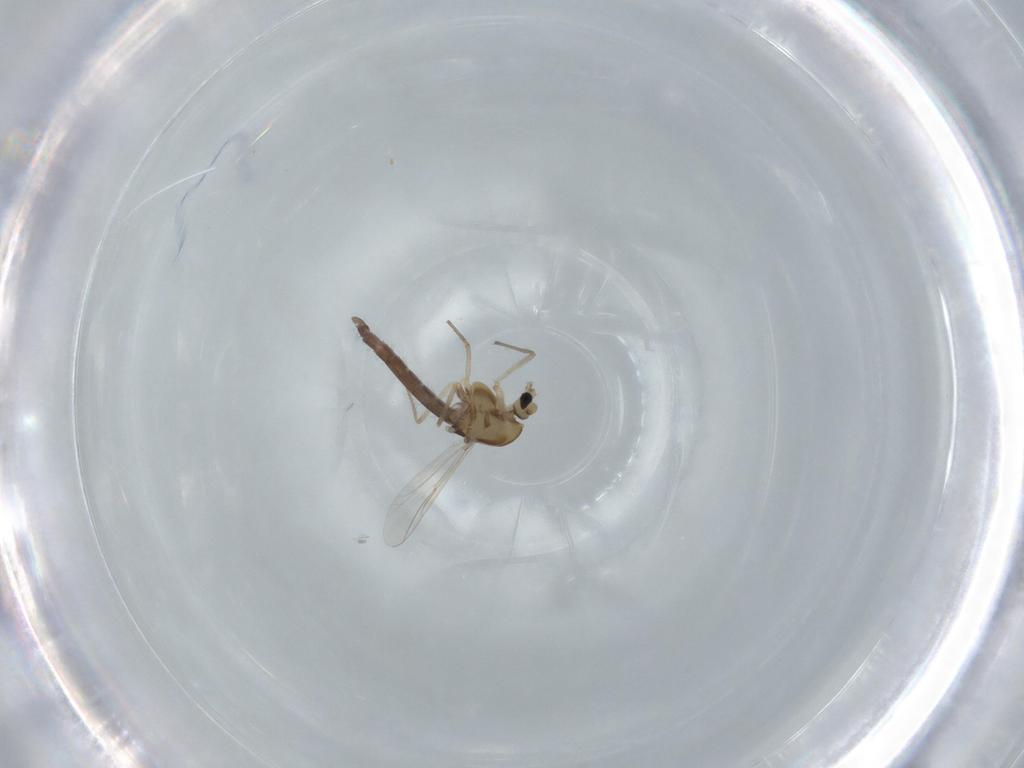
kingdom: Animalia
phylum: Arthropoda
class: Insecta
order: Diptera
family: Chironomidae
